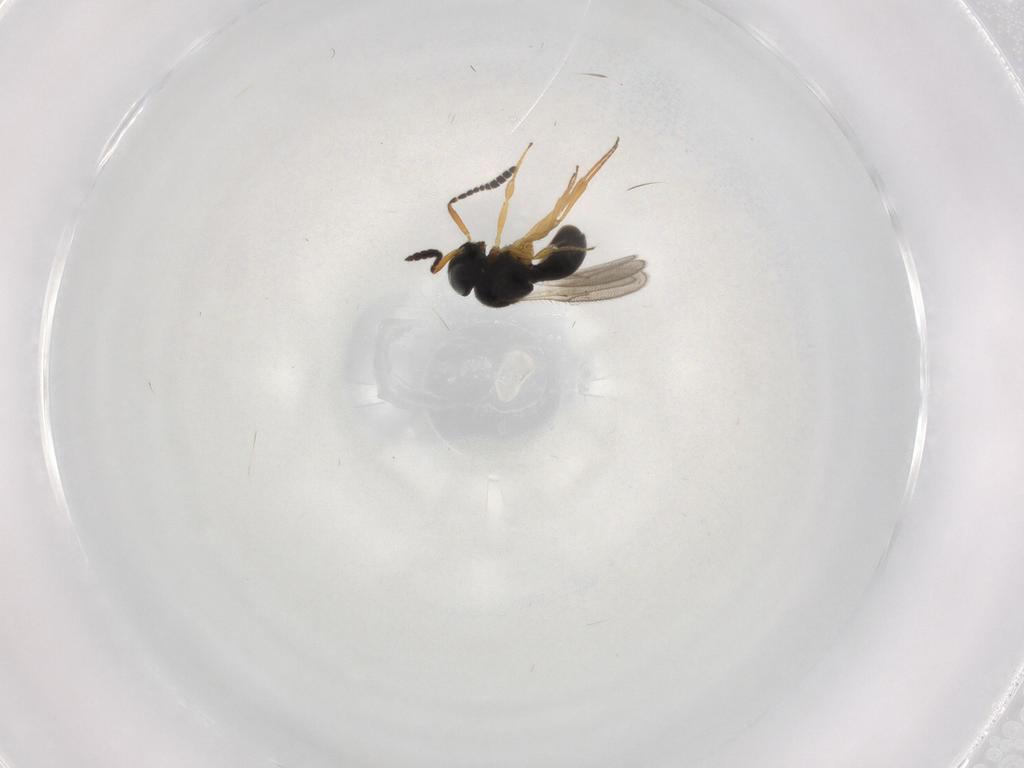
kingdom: Animalia
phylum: Arthropoda
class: Insecta
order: Hymenoptera
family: Scelionidae
